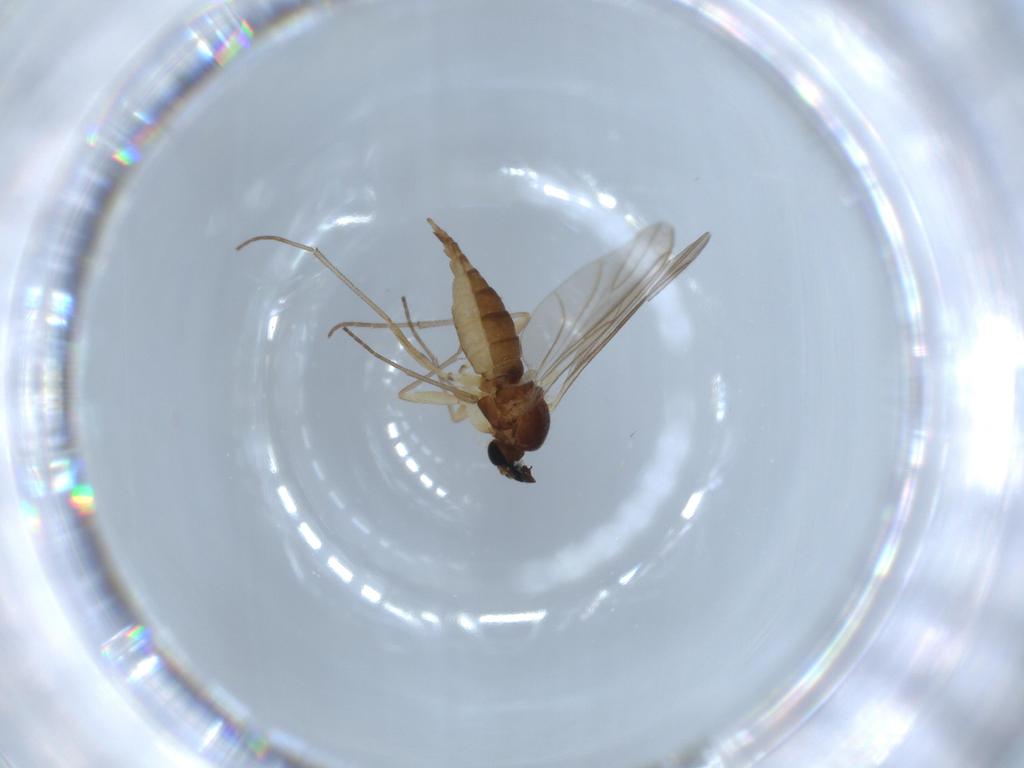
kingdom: Animalia
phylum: Arthropoda
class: Insecta
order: Diptera
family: Sciaridae
